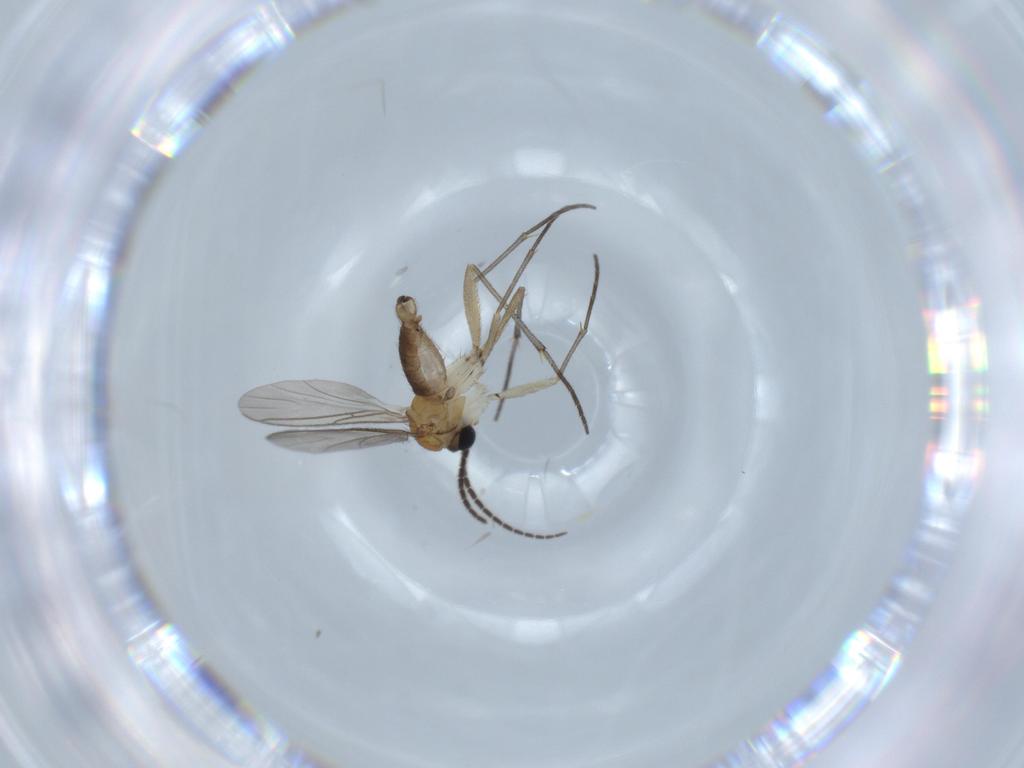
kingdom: Animalia
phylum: Arthropoda
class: Insecta
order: Diptera
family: Sciaridae
